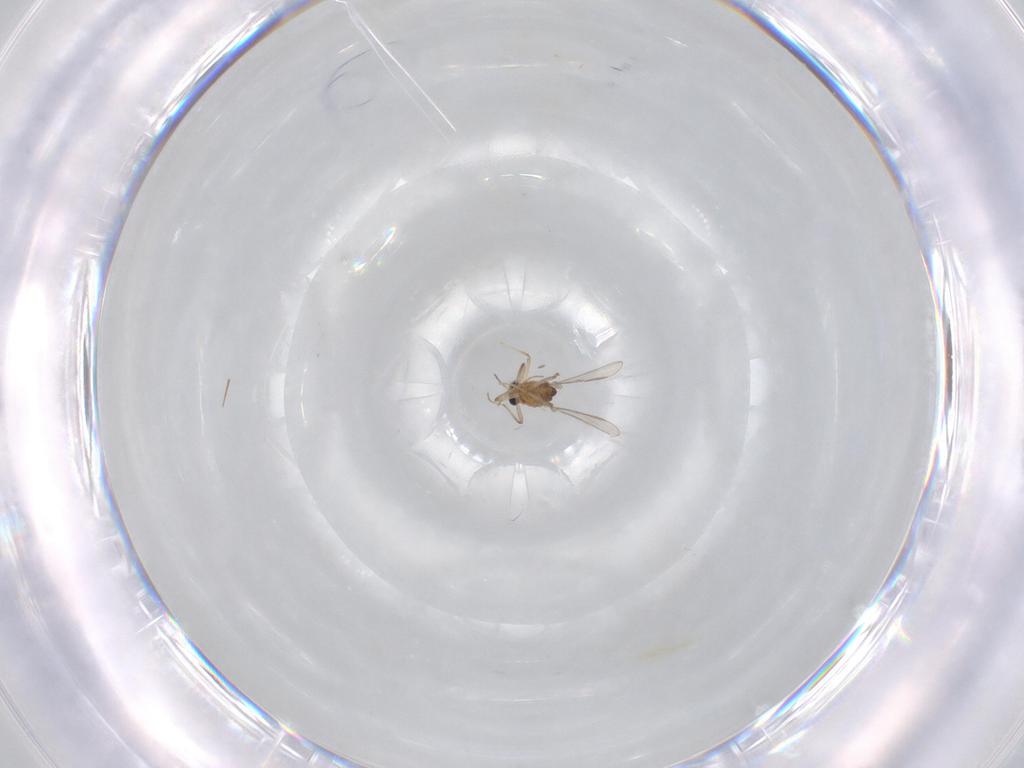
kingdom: Animalia
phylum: Arthropoda
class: Insecta
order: Diptera
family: Chironomidae
